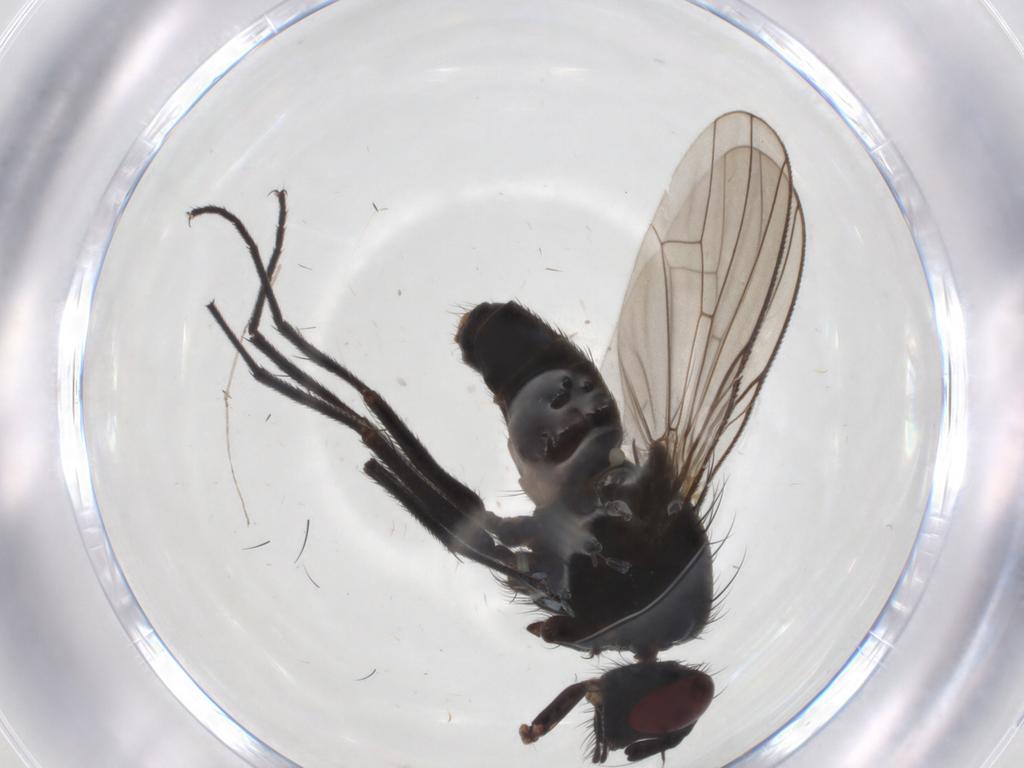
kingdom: Animalia
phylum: Arthropoda
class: Insecta
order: Diptera
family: Muscidae
